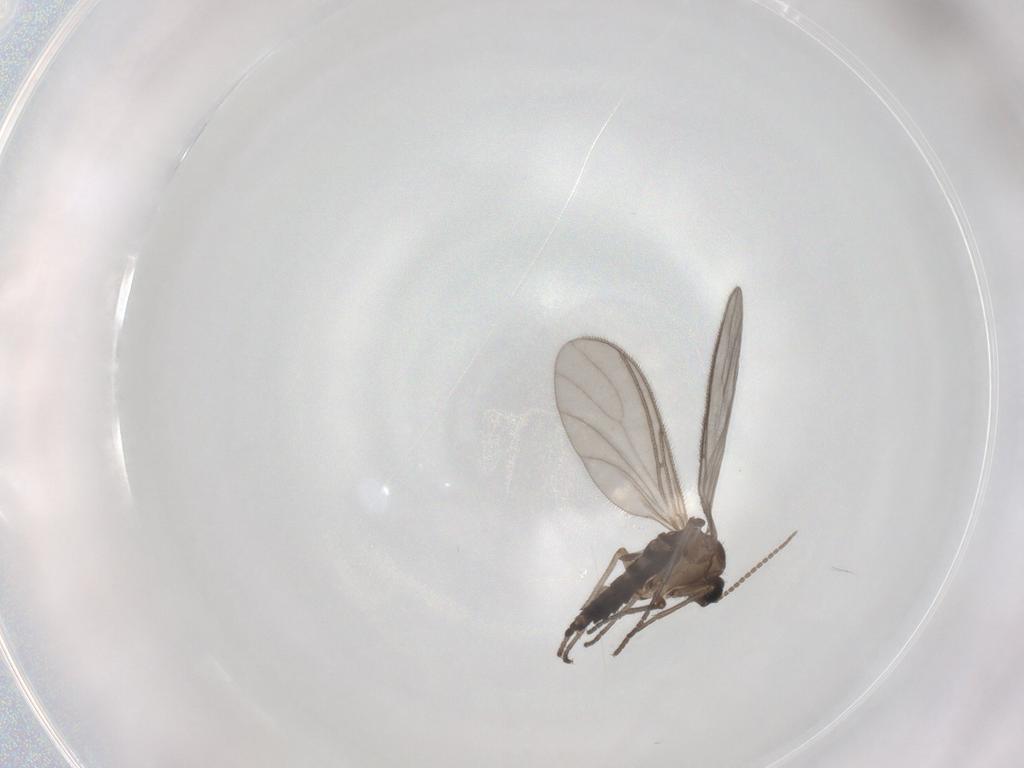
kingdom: Animalia
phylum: Arthropoda
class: Insecta
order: Diptera
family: Sciaridae
